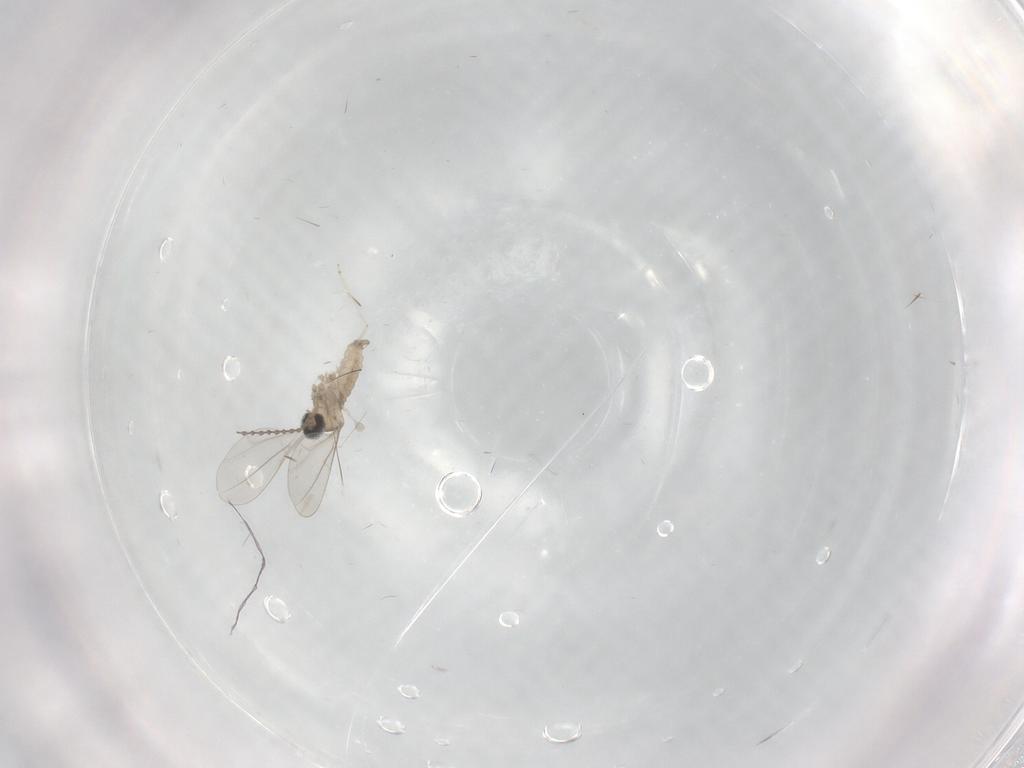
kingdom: Animalia
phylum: Arthropoda
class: Insecta
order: Diptera
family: Cecidomyiidae
